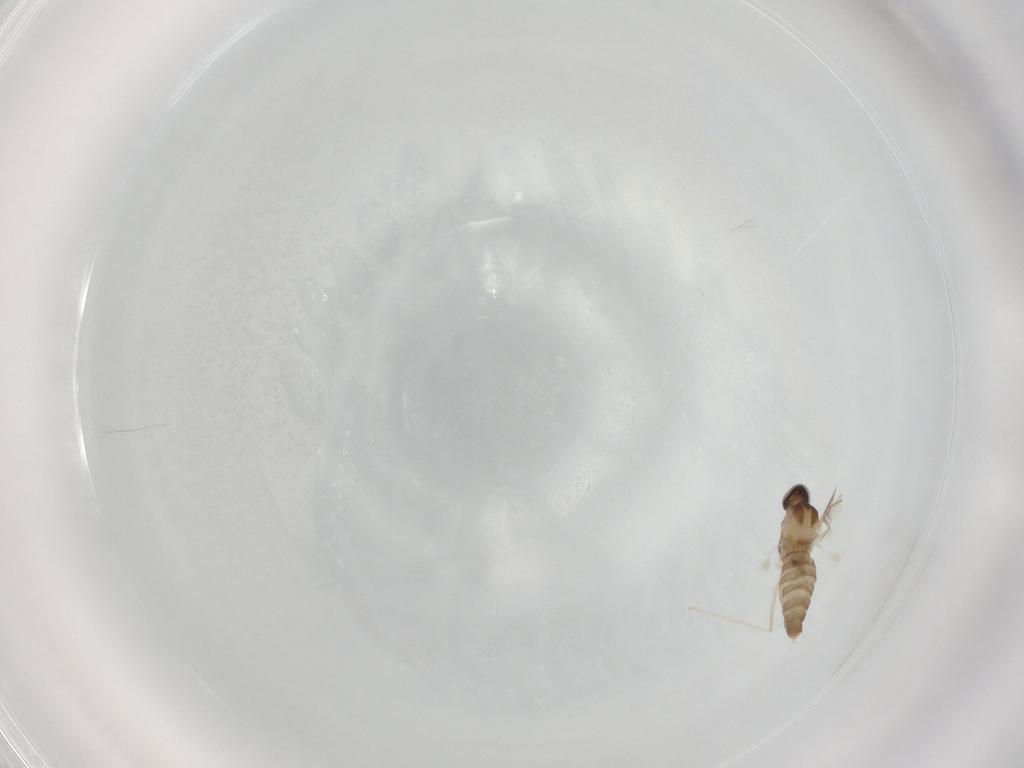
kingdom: Animalia
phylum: Arthropoda
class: Insecta
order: Diptera
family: Cecidomyiidae
